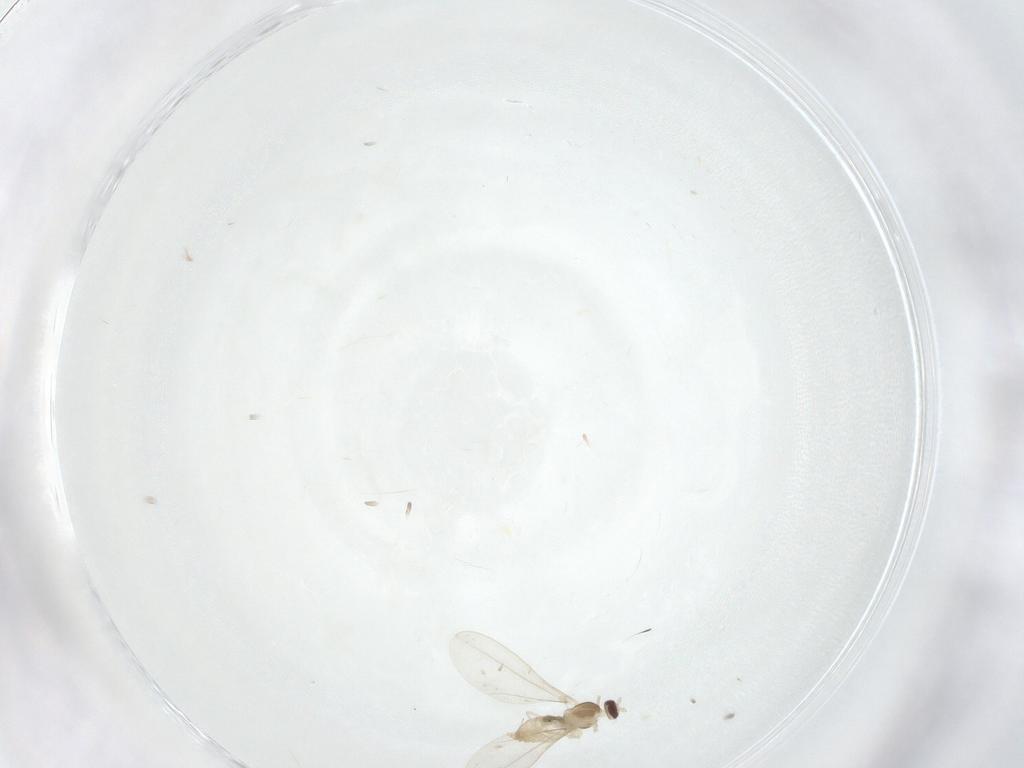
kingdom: Animalia
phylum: Arthropoda
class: Insecta
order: Diptera
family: Cecidomyiidae
